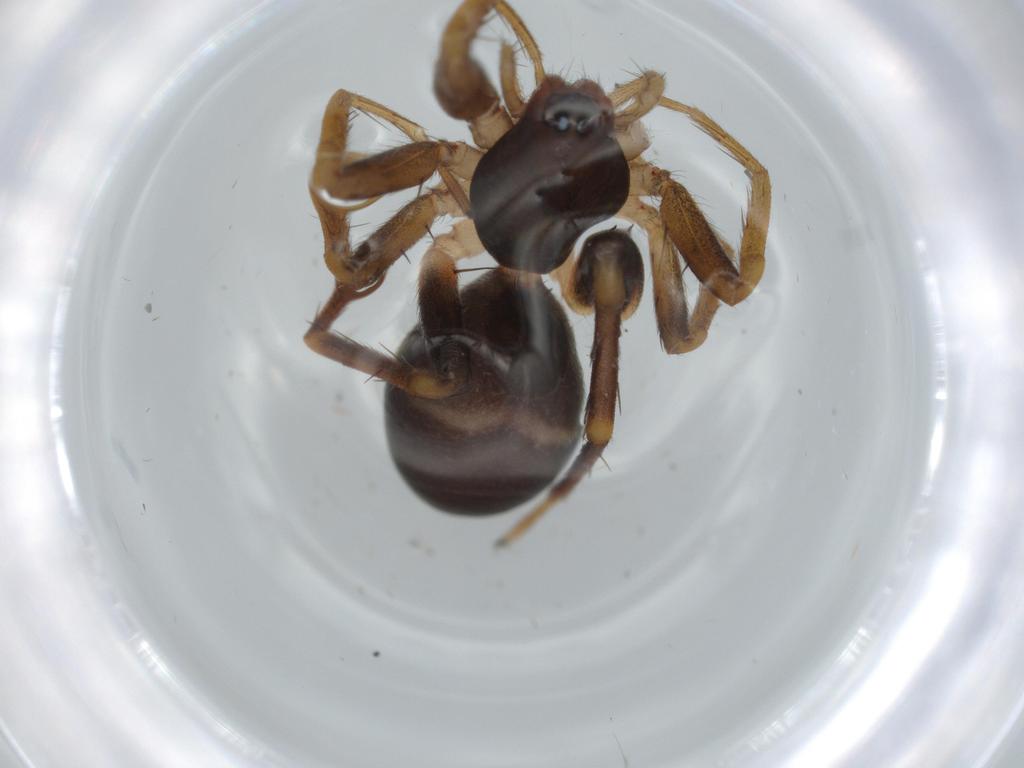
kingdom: Animalia
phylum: Arthropoda
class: Arachnida
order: Araneae
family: Corinnidae
